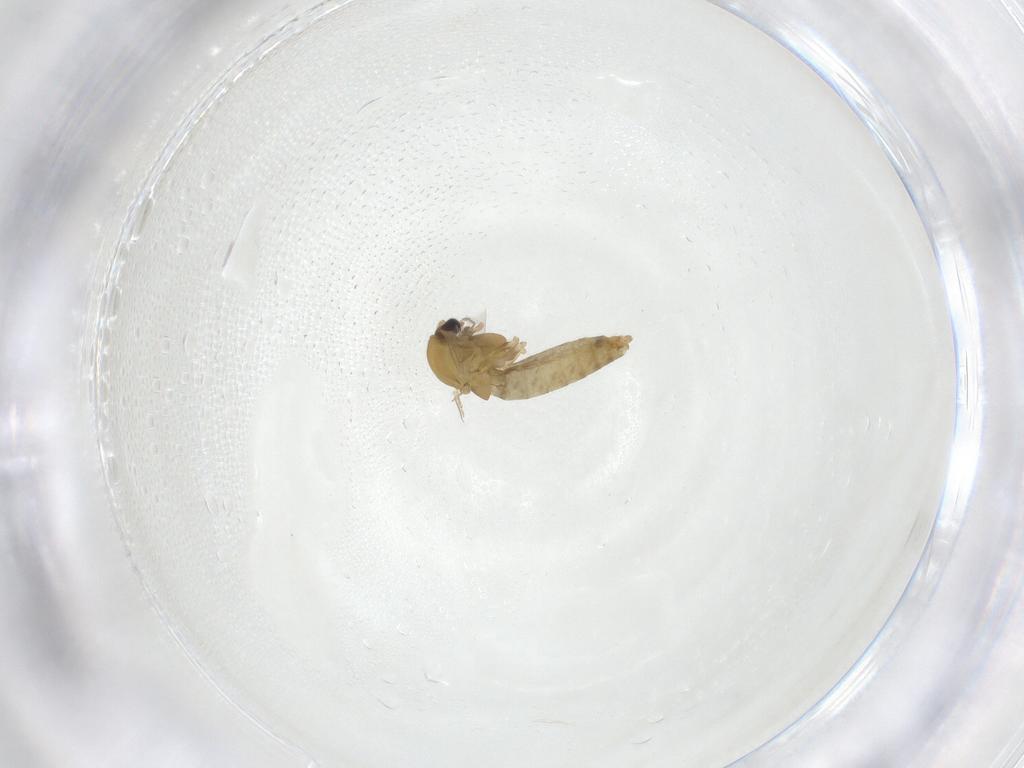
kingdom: Animalia
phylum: Arthropoda
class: Insecta
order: Diptera
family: Chironomidae
